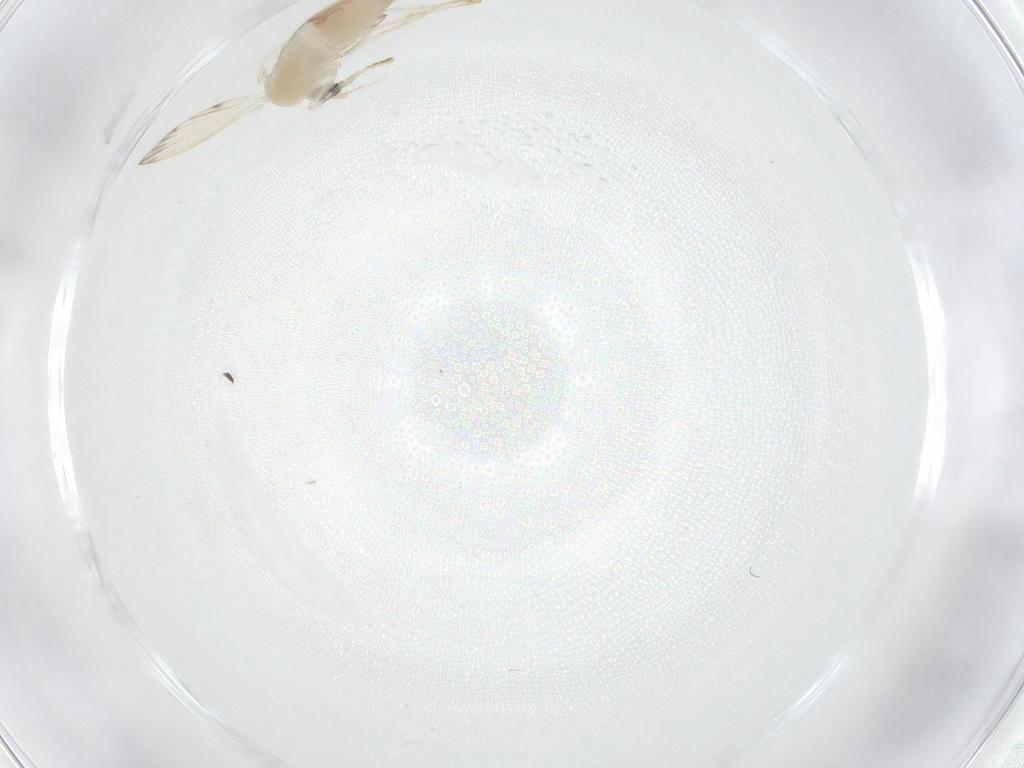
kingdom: Animalia
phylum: Arthropoda
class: Insecta
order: Diptera
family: Psychodidae
